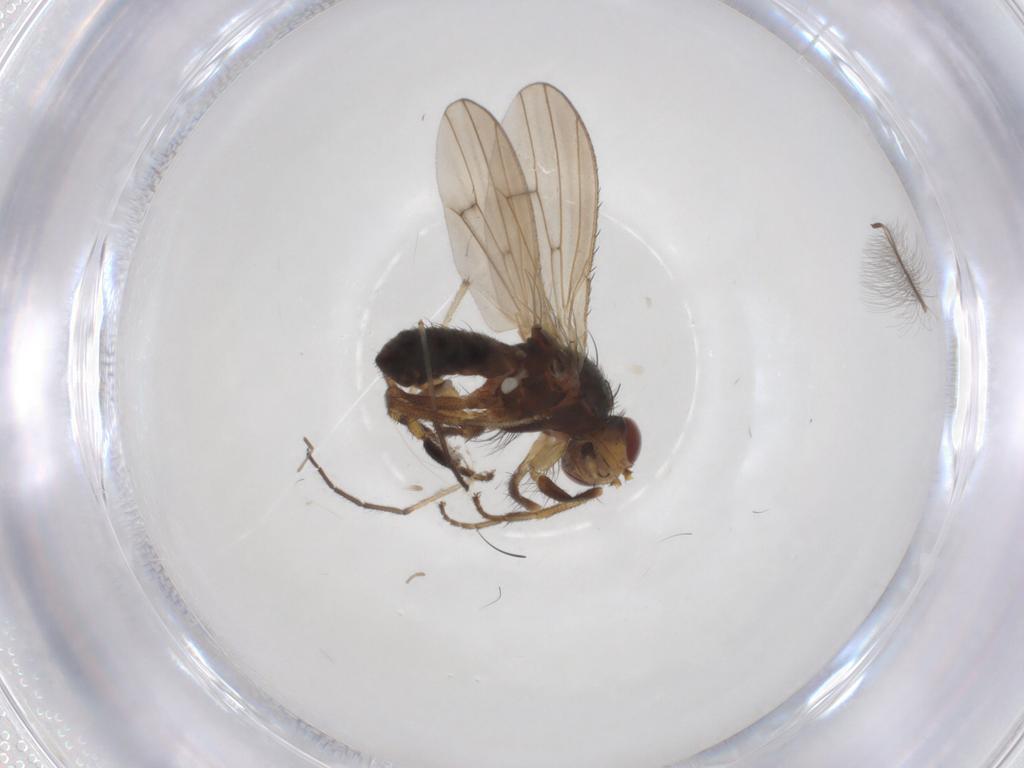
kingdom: Animalia
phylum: Arthropoda
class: Insecta
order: Diptera
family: Heleomyzidae
